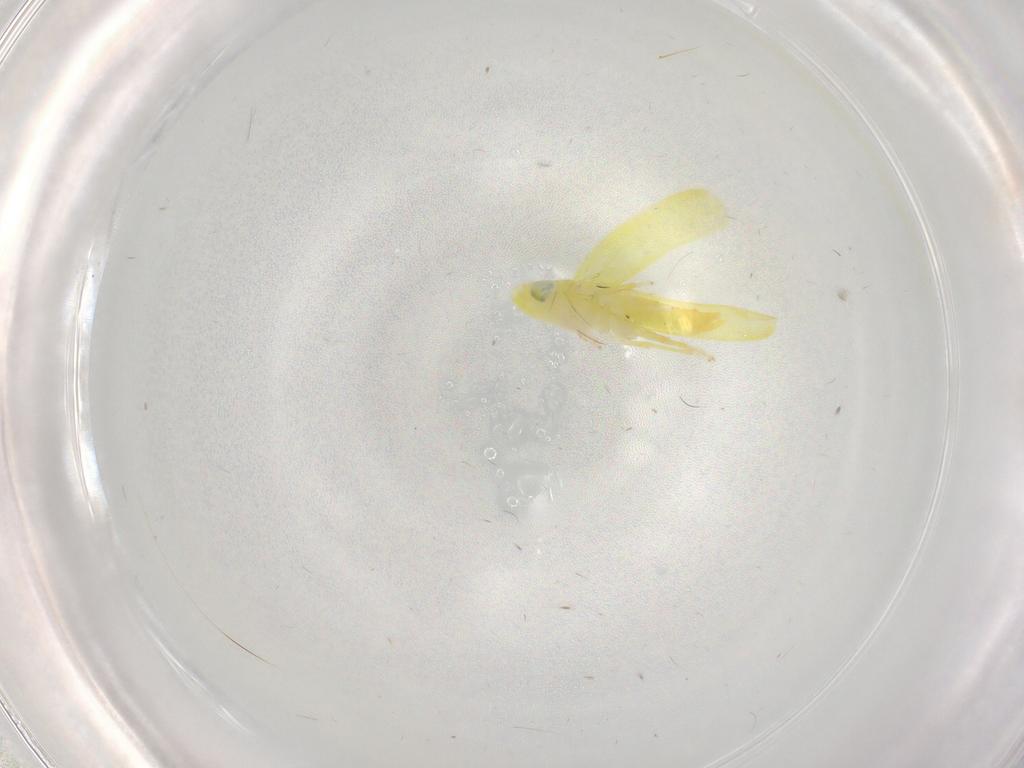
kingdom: Animalia
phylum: Arthropoda
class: Insecta
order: Hemiptera
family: Cicadellidae
